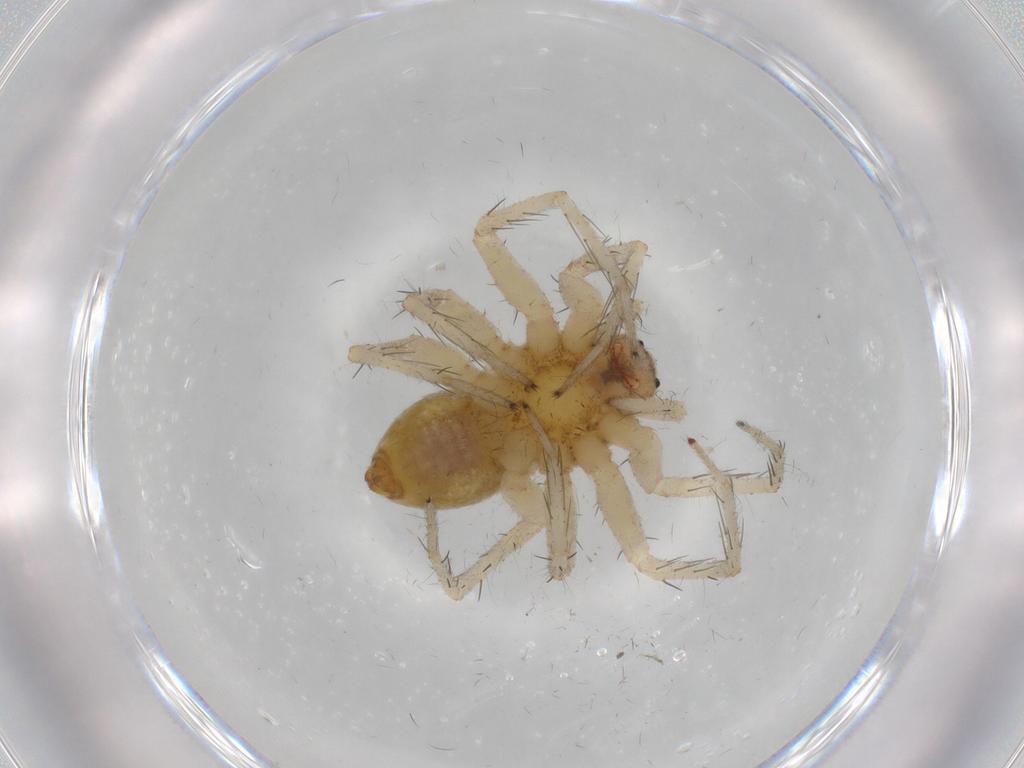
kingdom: Animalia
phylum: Arthropoda
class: Arachnida
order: Araneae
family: Pisauridae
